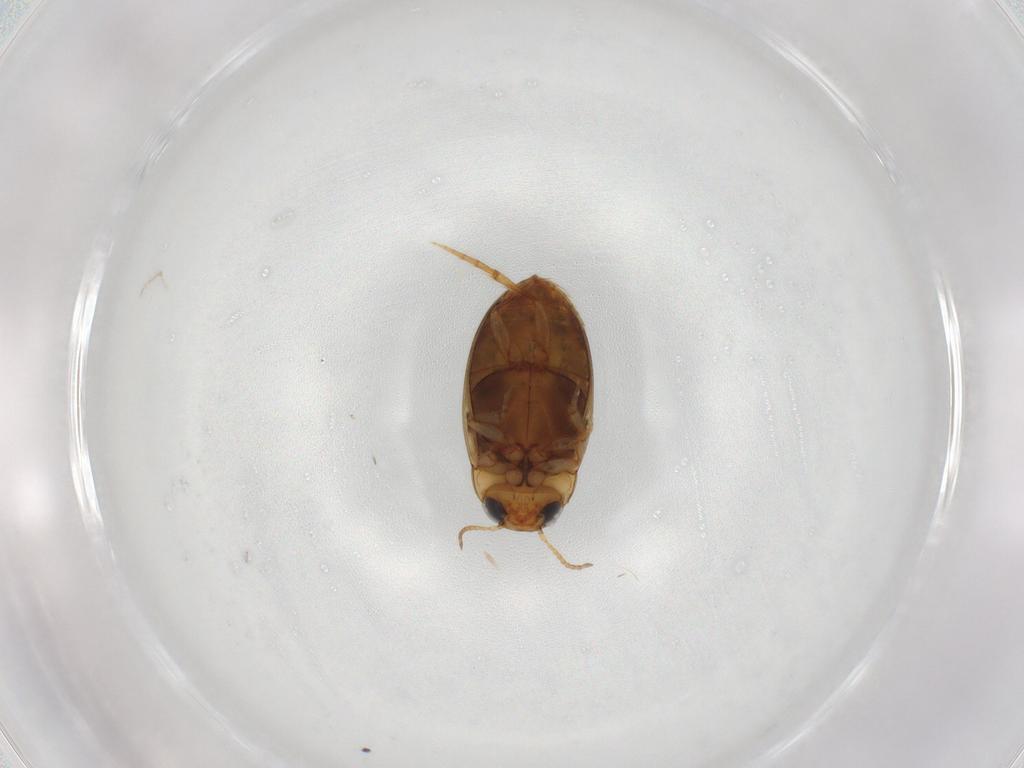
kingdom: Animalia
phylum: Arthropoda
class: Insecta
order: Coleoptera
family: Dytiscidae
